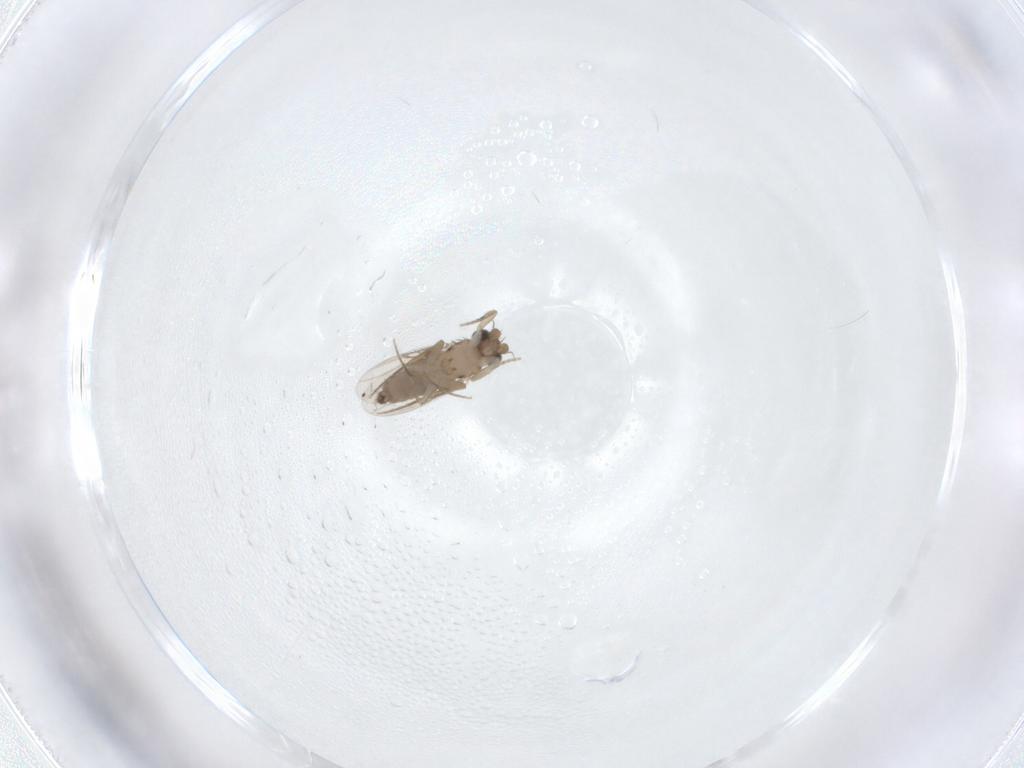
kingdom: Animalia
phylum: Arthropoda
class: Insecta
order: Diptera
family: Phoridae
